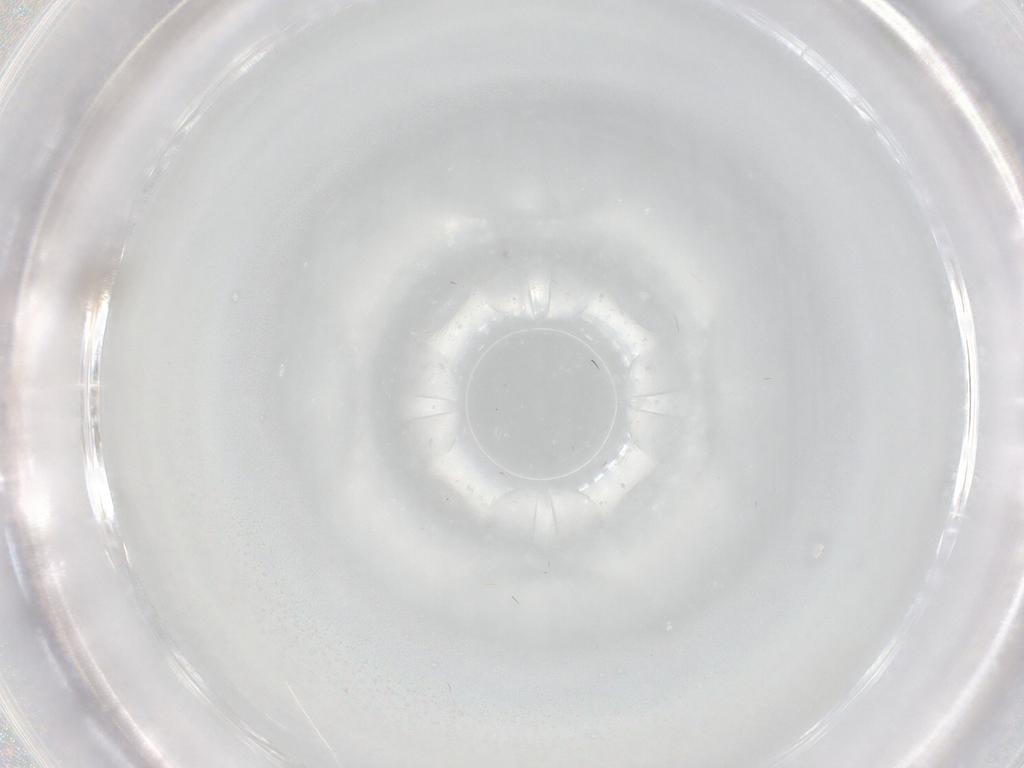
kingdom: Animalia
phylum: Arthropoda
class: Insecta
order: Diptera
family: Cecidomyiidae
